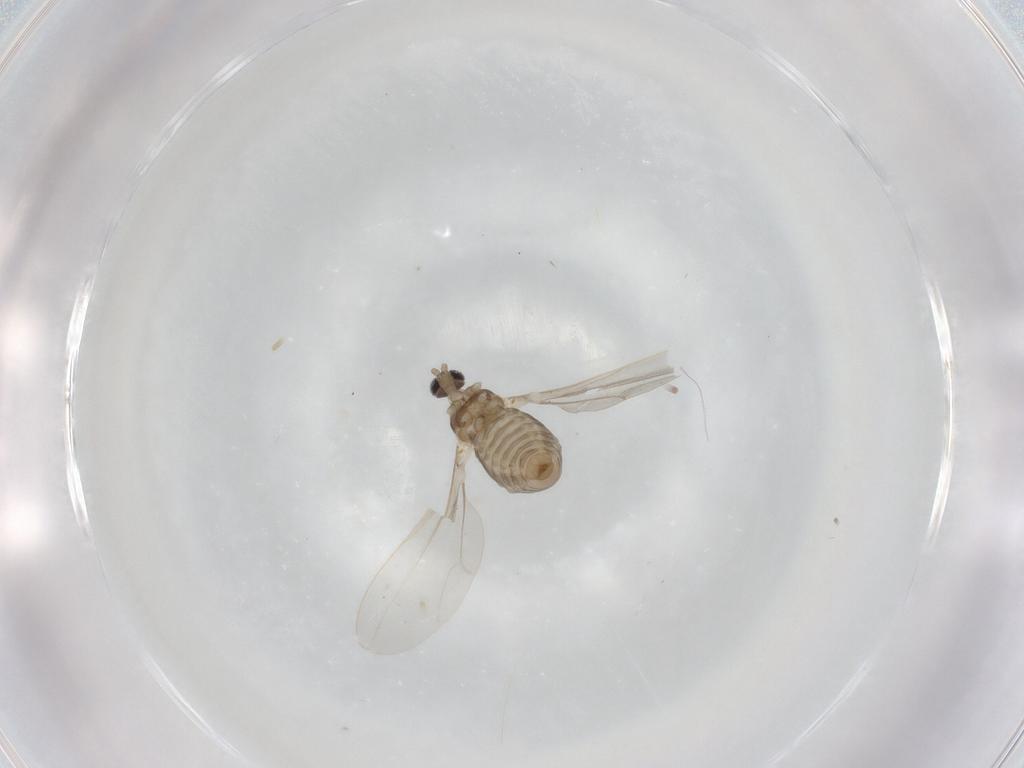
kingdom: Animalia
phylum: Arthropoda
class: Insecta
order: Diptera
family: Cecidomyiidae
